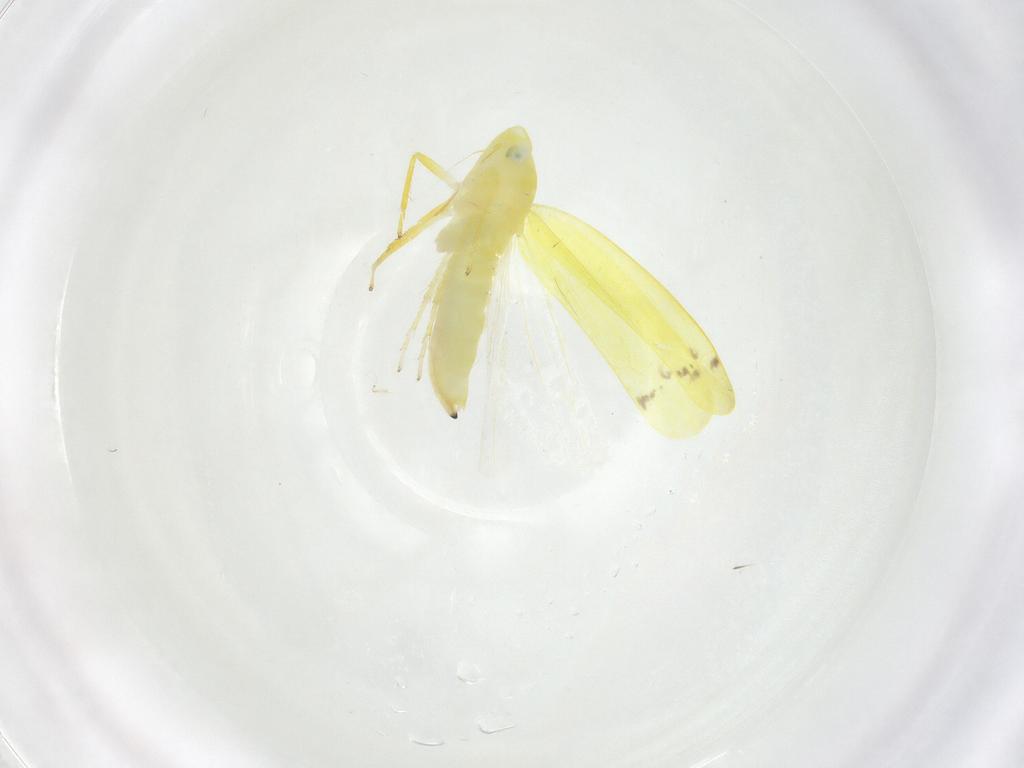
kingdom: Animalia
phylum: Arthropoda
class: Insecta
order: Hemiptera
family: Cicadellidae
